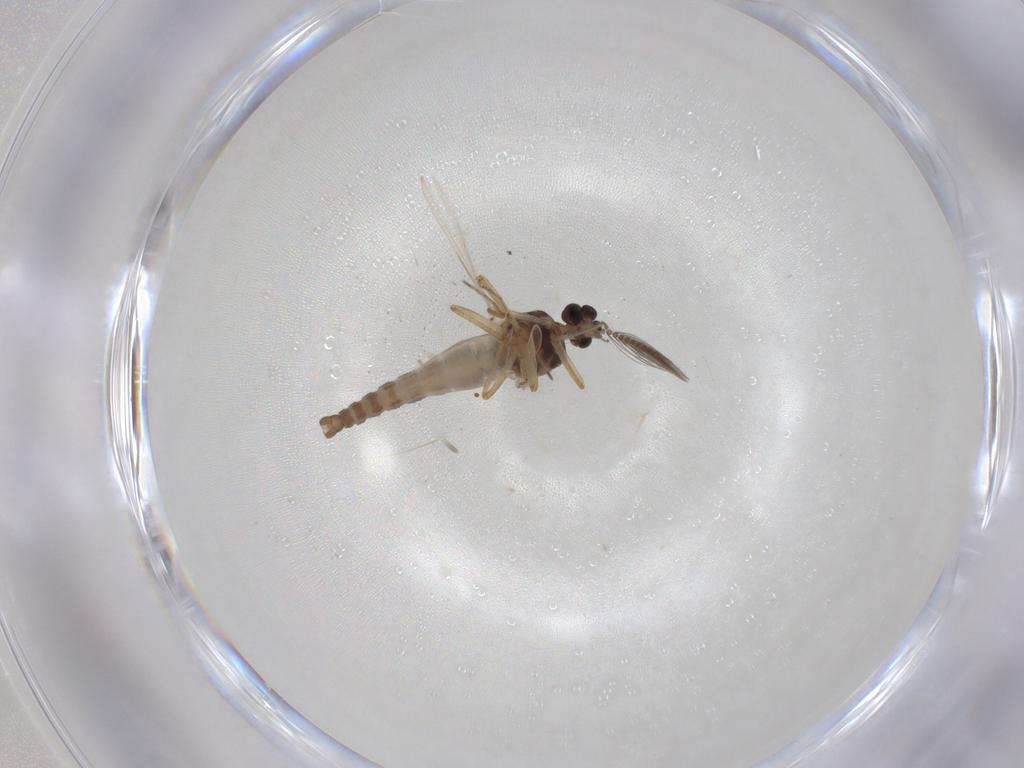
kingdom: Animalia
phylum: Arthropoda
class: Insecta
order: Diptera
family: Ceratopogonidae
